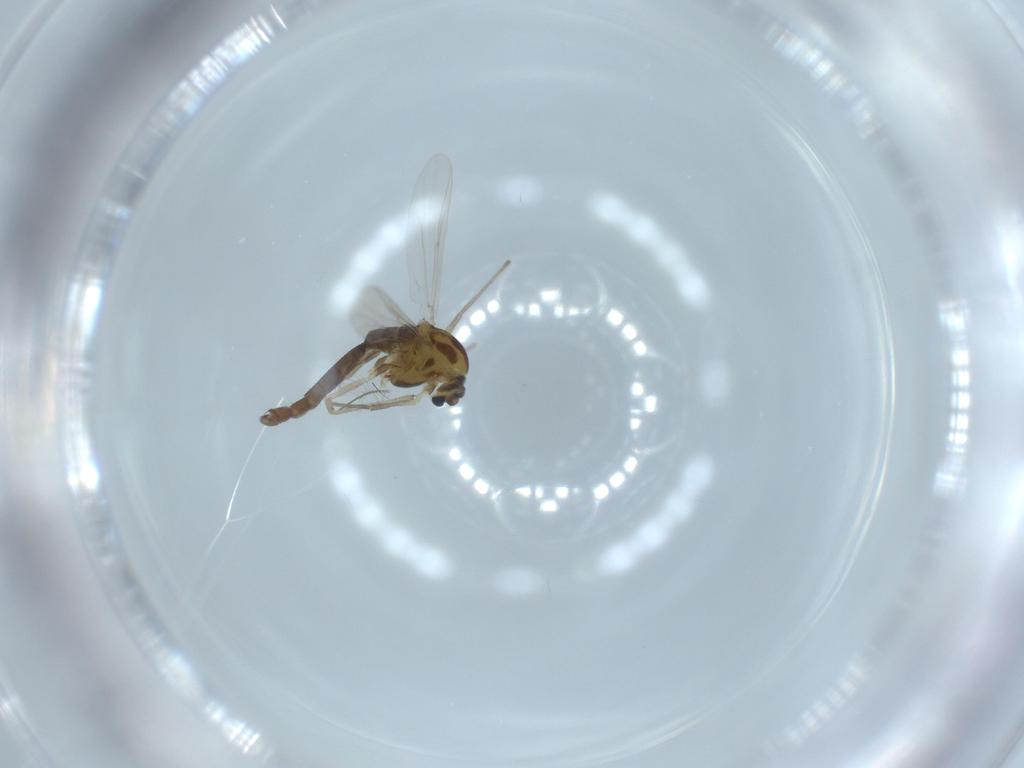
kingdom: Animalia
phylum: Arthropoda
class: Insecta
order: Diptera
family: Chironomidae
